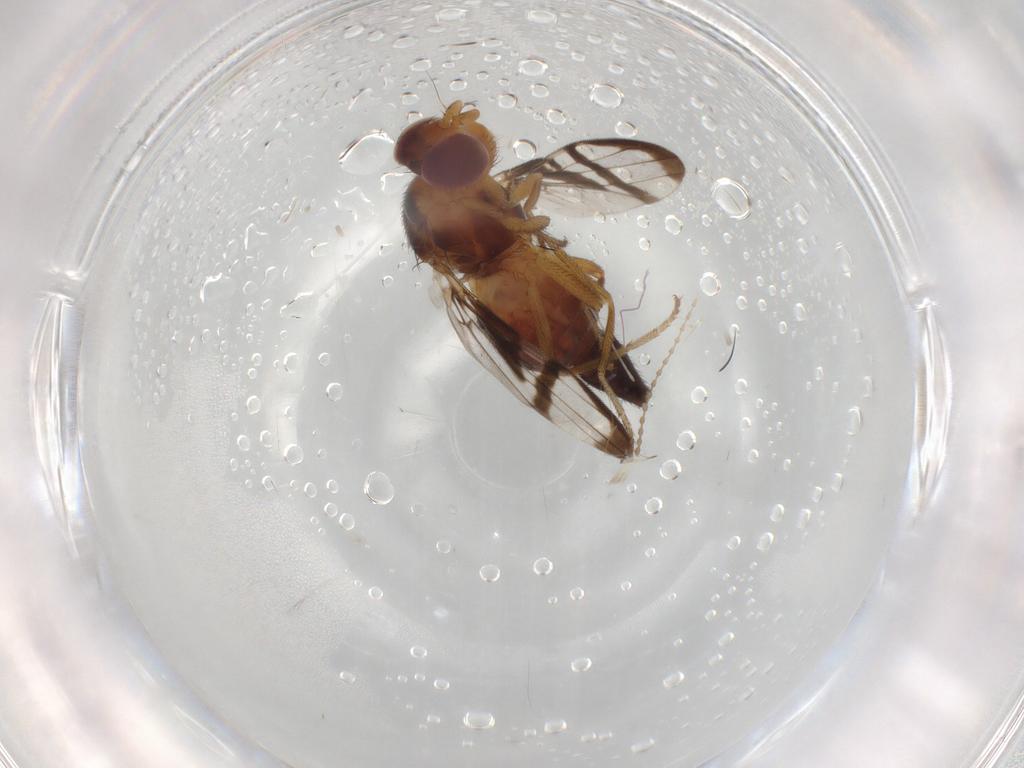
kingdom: Animalia
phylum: Arthropoda
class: Insecta
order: Diptera
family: Ulidiidae
